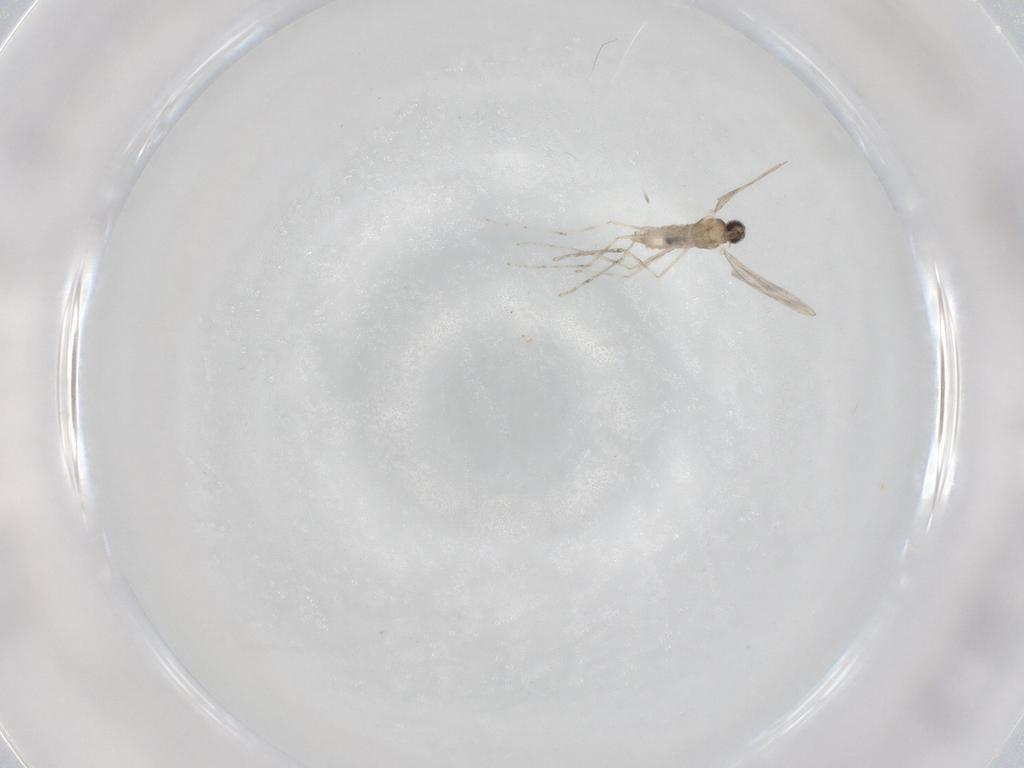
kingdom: Animalia
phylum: Arthropoda
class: Insecta
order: Diptera
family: Cecidomyiidae
